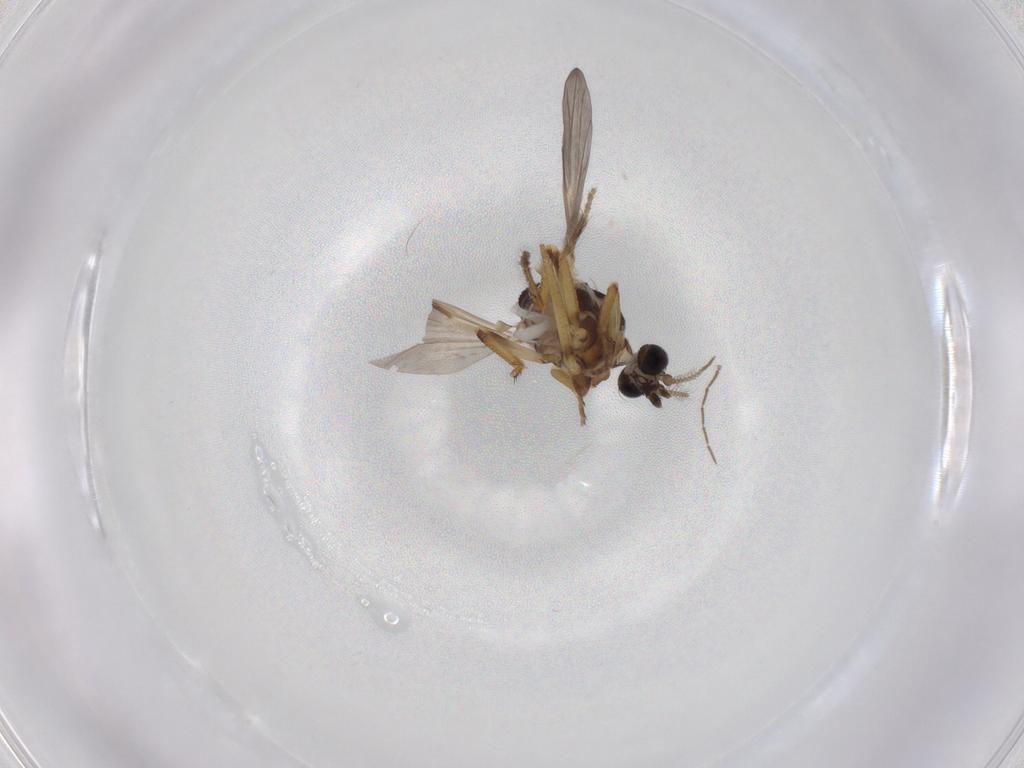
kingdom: Animalia
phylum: Arthropoda
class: Insecta
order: Diptera
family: Ceratopogonidae
